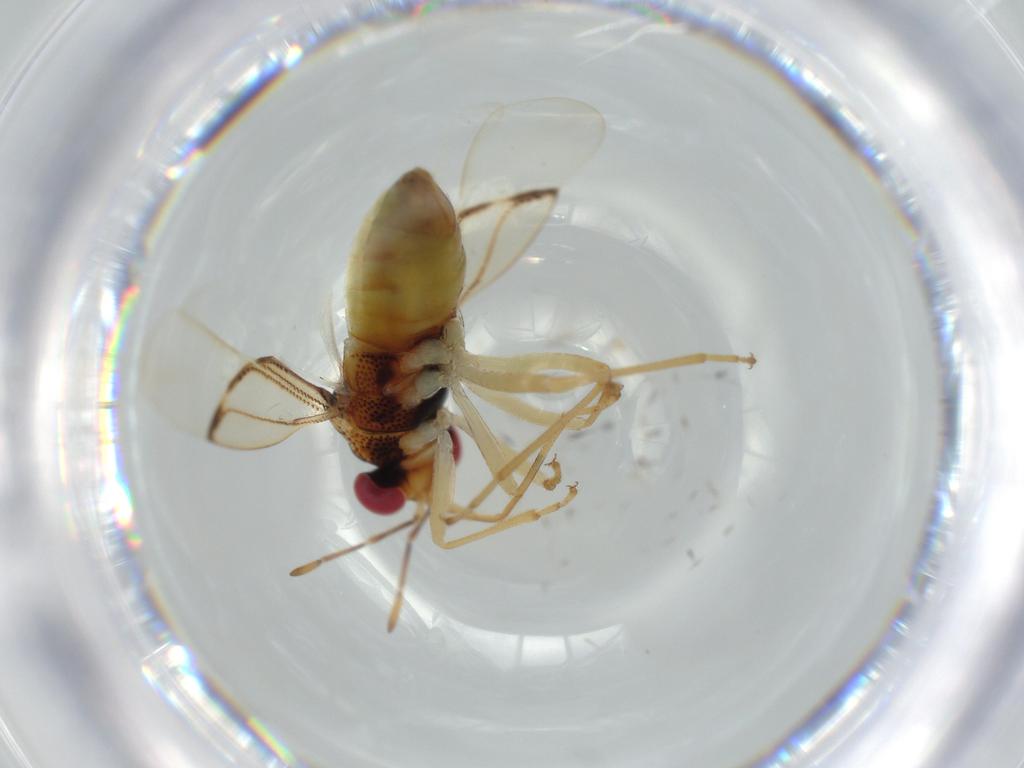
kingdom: Animalia
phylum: Arthropoda
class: Insecta
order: Hemiptera
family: Geocoridae
